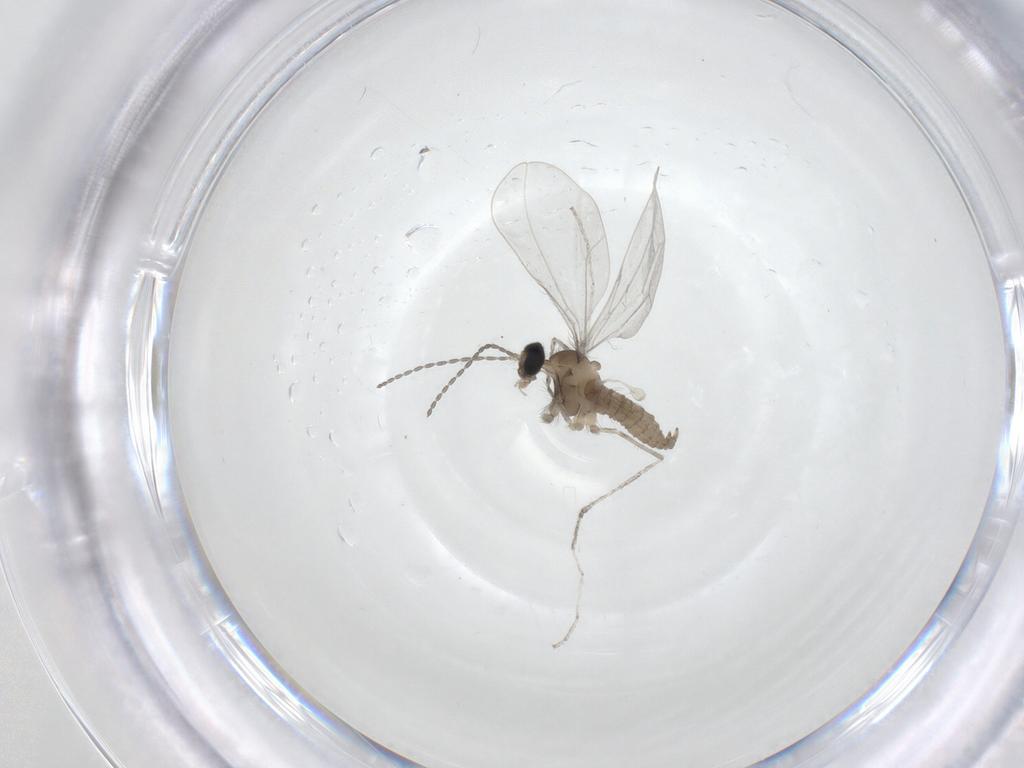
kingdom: Animalia
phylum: Arthropoda
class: Insecta
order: Diptera
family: Cecidomyiidae
